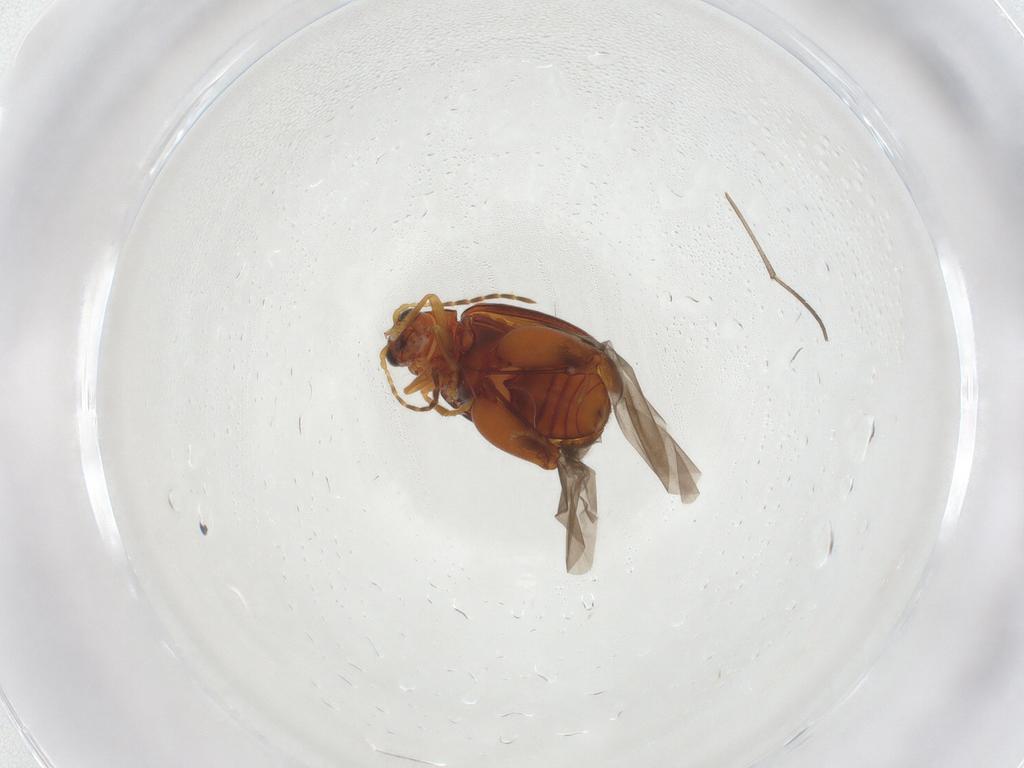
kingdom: Animalia
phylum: Arthropoda
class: Insecta
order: Coleoptera
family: Chrysomelidae
